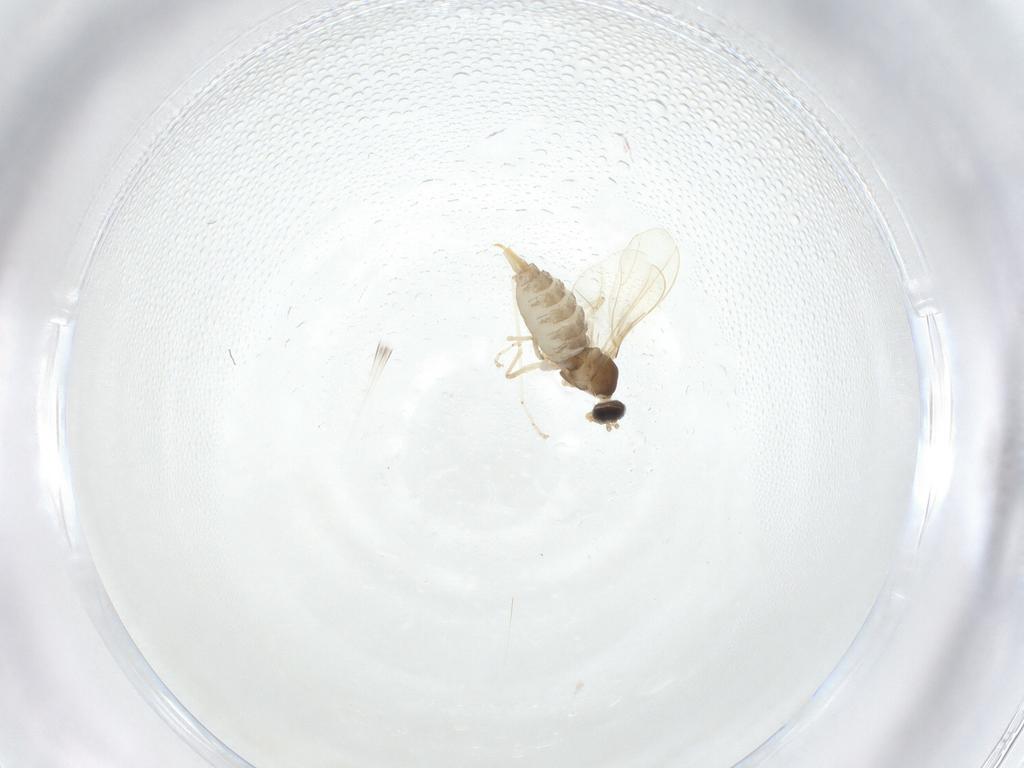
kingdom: Animalia
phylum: Arthropoda
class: Insecta
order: Diptera
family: Cecidomyiidae
